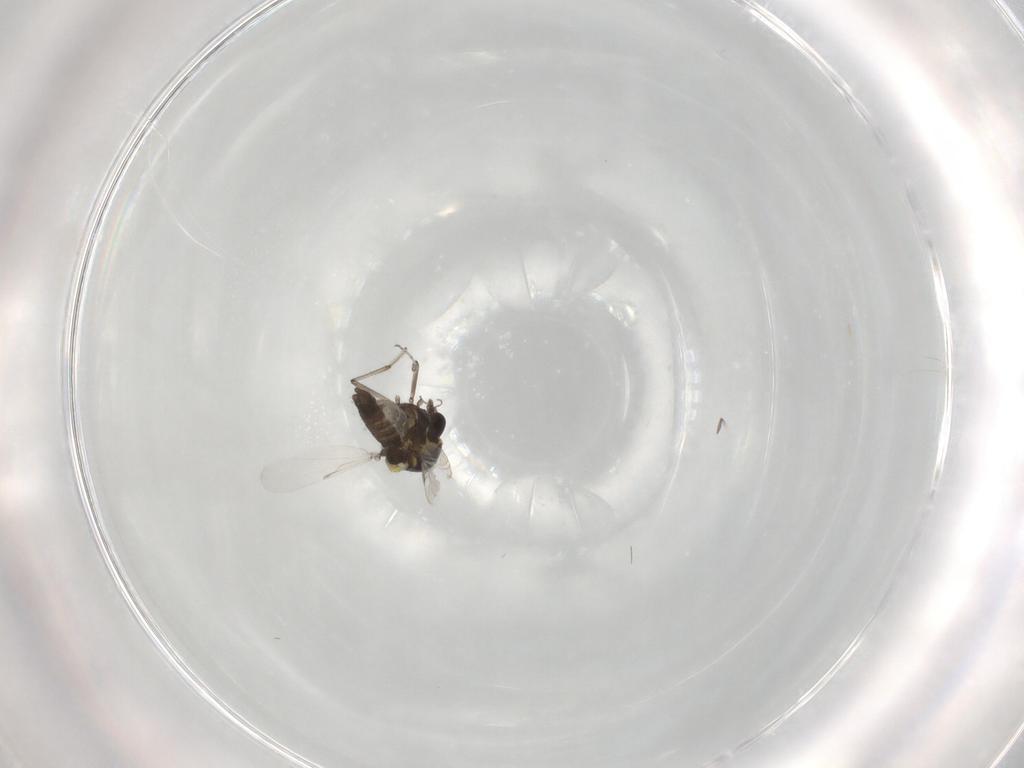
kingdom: Animalia
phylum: Arthropoda
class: Insecta
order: Diptera
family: Ceratopogonidae
